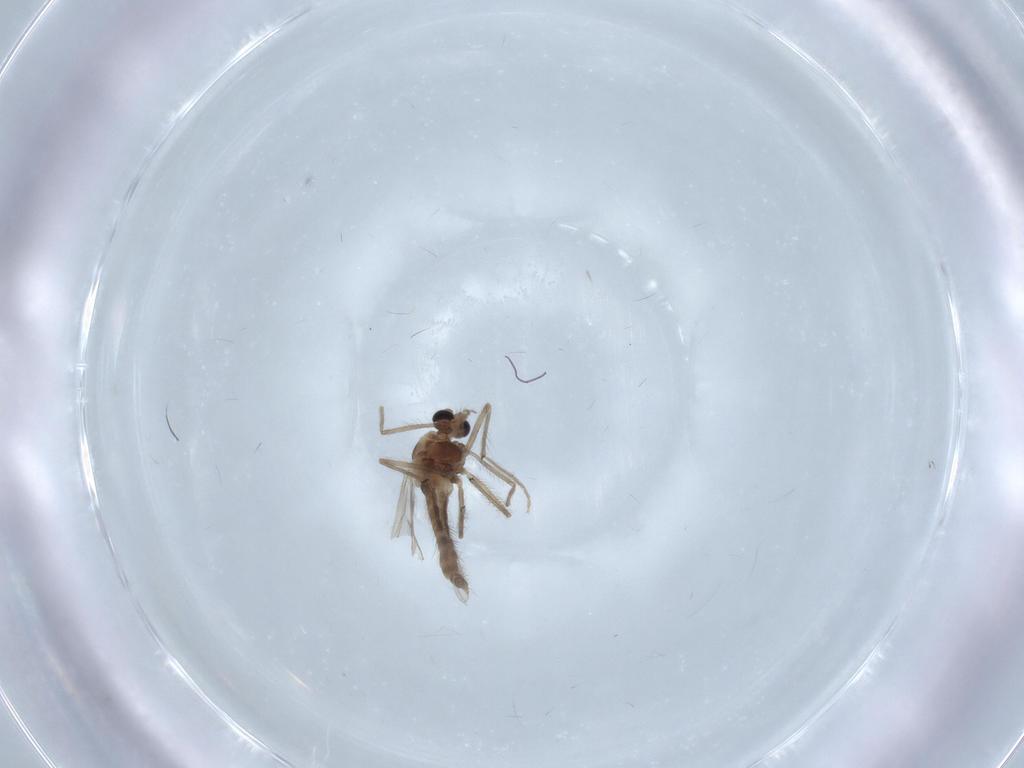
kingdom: Animalia
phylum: Arthropoda
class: Insecta
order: Diptera
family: Chironomidae
